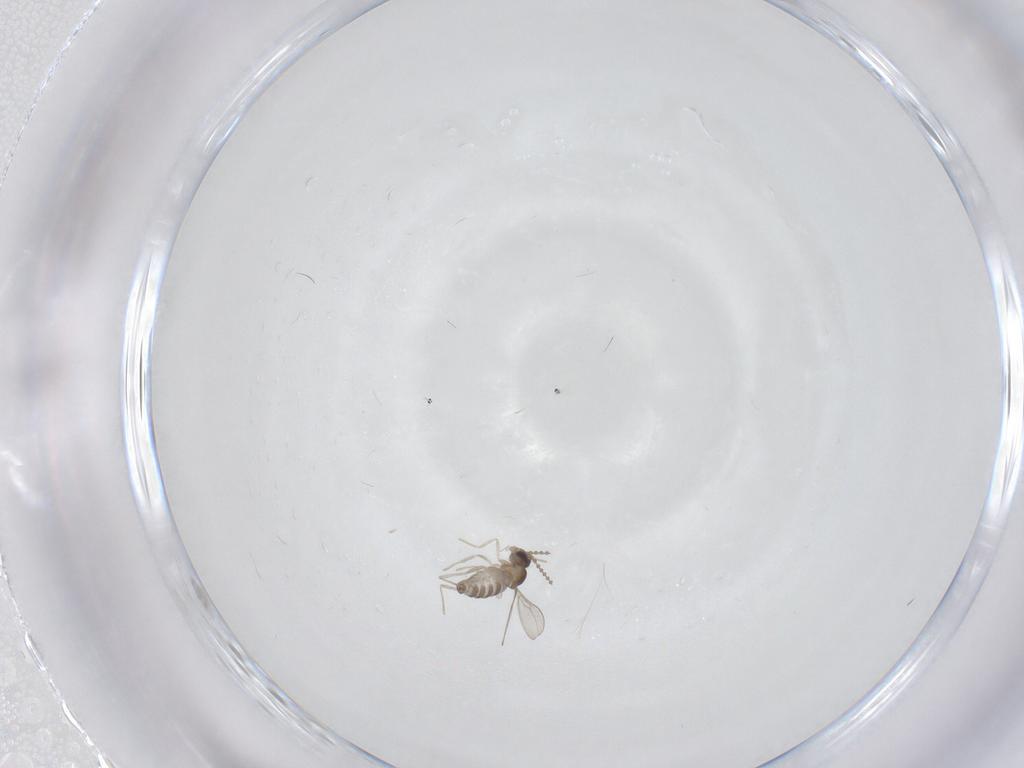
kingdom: Animalia
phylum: Arthropoda
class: Insecta
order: Diptera
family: Cecidomyiidae
